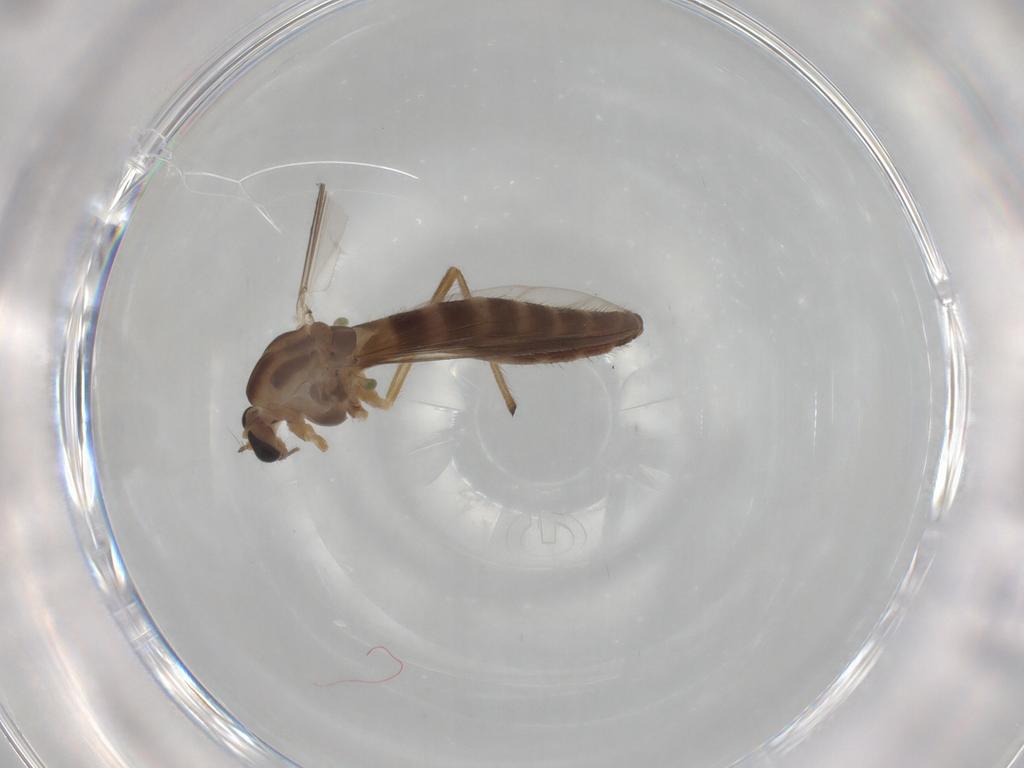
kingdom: Animalia
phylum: Arthropoda
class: Insecta
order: Diptera
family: Chironomidae
